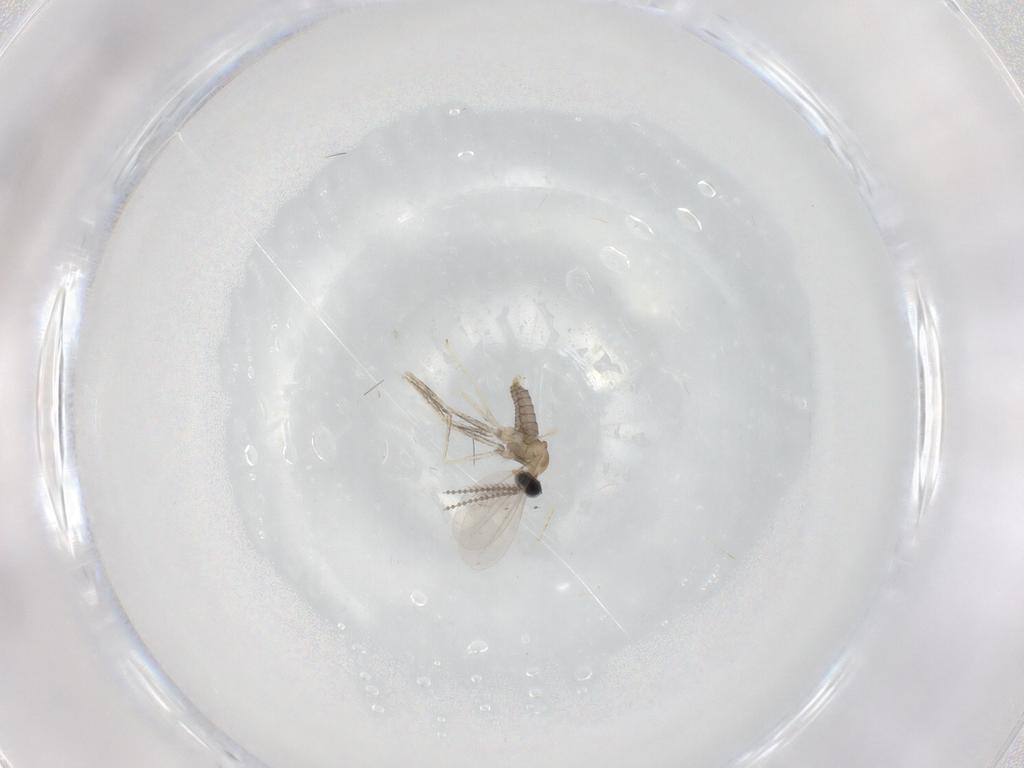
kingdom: Animalia
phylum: Arthropoda
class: Insecta
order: Diptera
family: Cecidomyiidae
